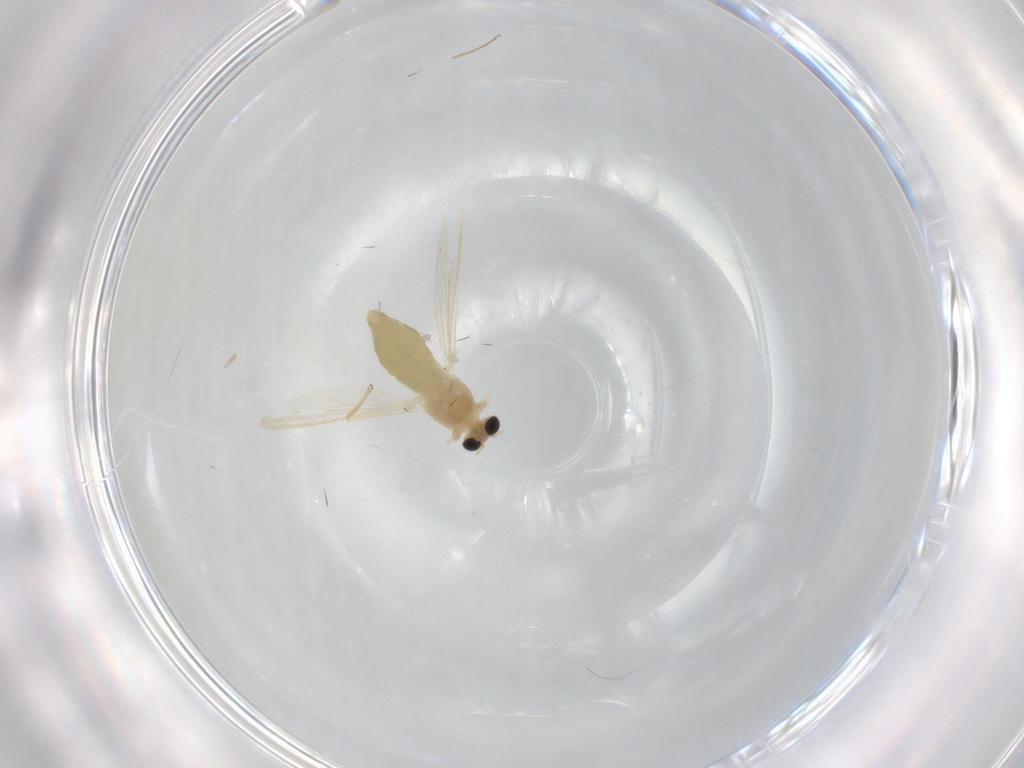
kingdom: Animalia
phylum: Arthropoda
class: Insecta
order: Diptera
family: Chironomidae
